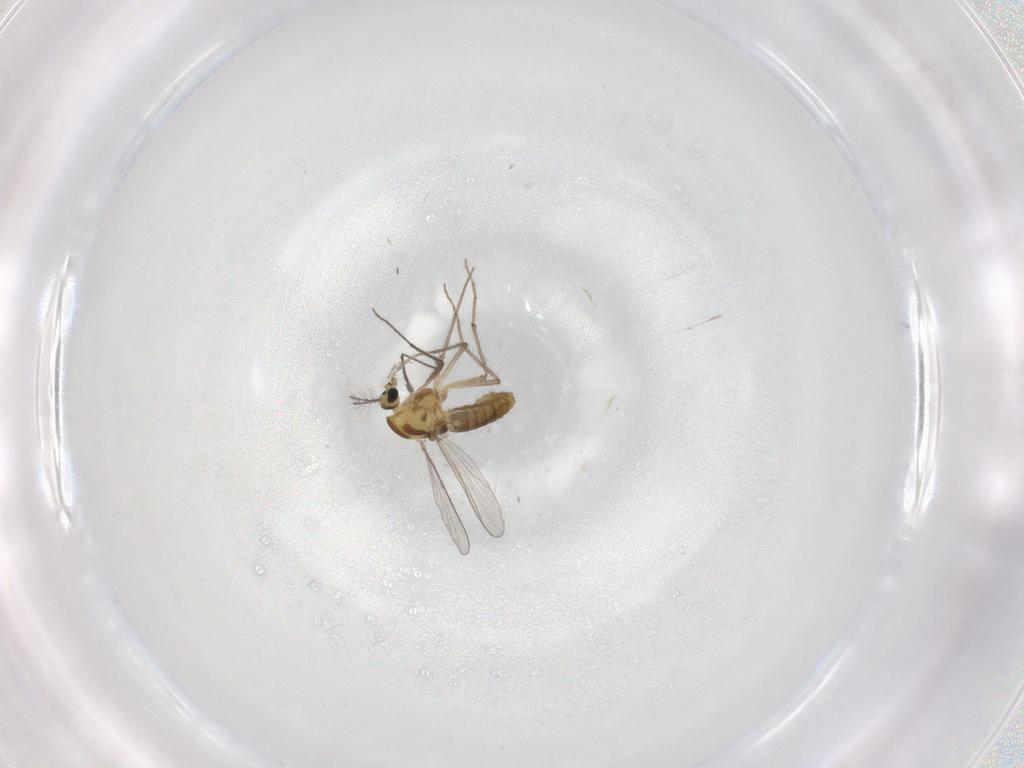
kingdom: Animalia
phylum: Arthropoda
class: Insecta
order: Diptera
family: Chironomidae
